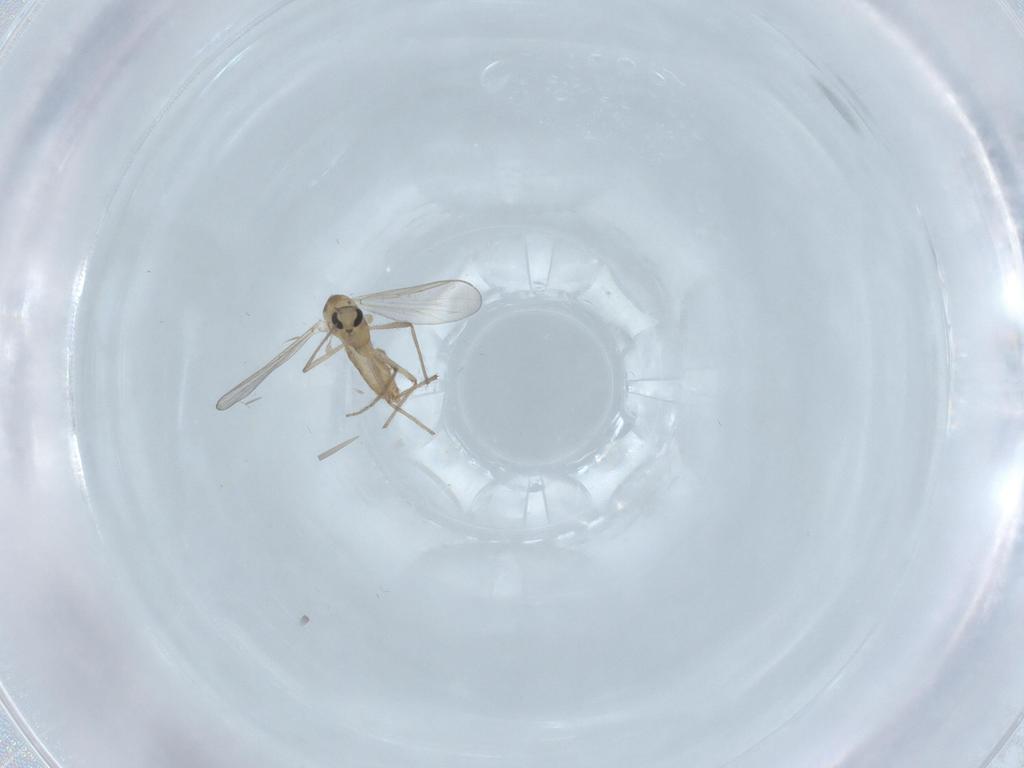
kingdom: Animalia
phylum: Arthropoda
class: Insecta
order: Diptera
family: Chironomidae
